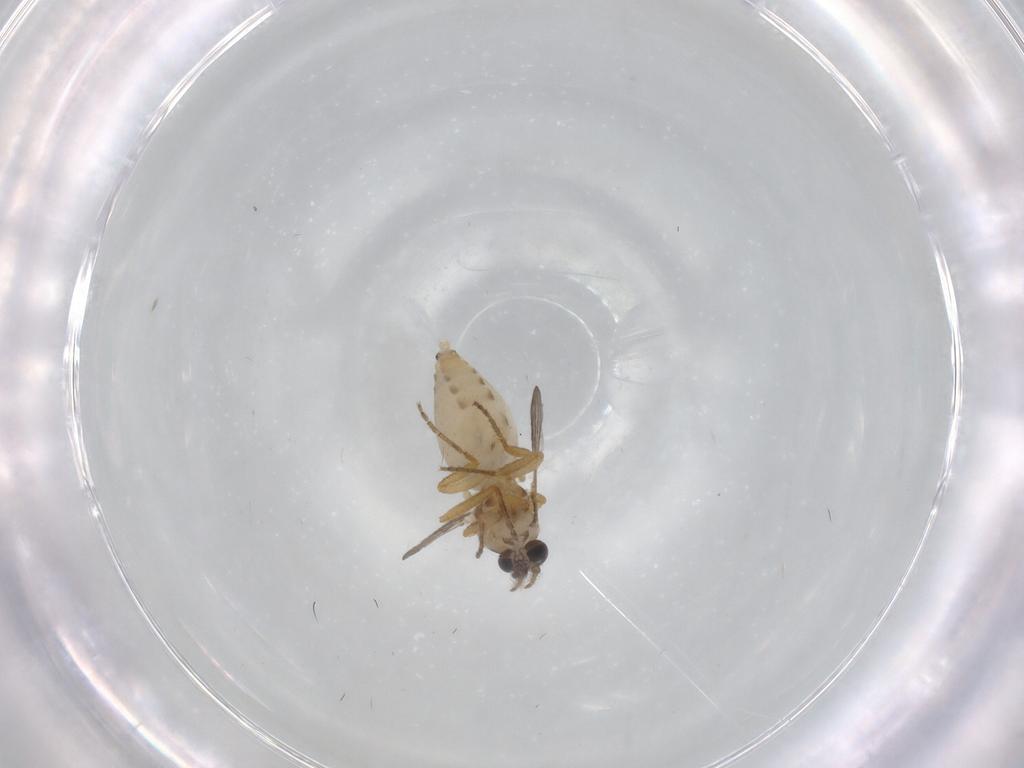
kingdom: Animalia
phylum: Arthropoda
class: Insecta
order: Diptera
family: Ceratopogonidae
